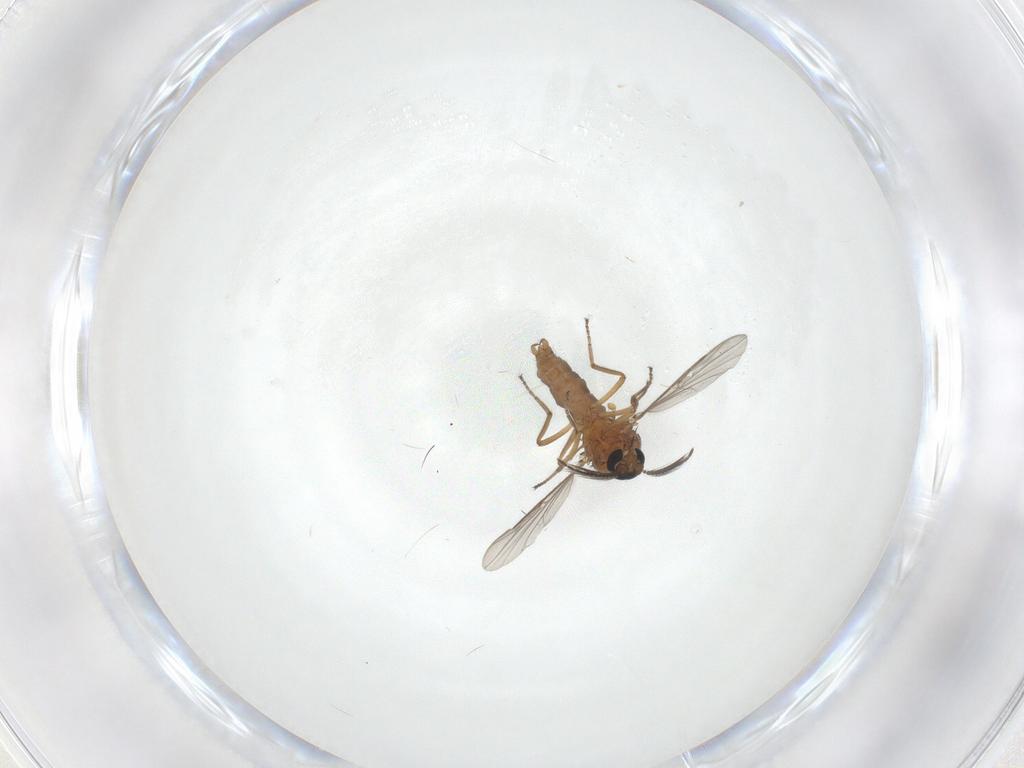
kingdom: Animalia
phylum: Arthropoda
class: Insecta
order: Diptera
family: Ceratopogonidae
